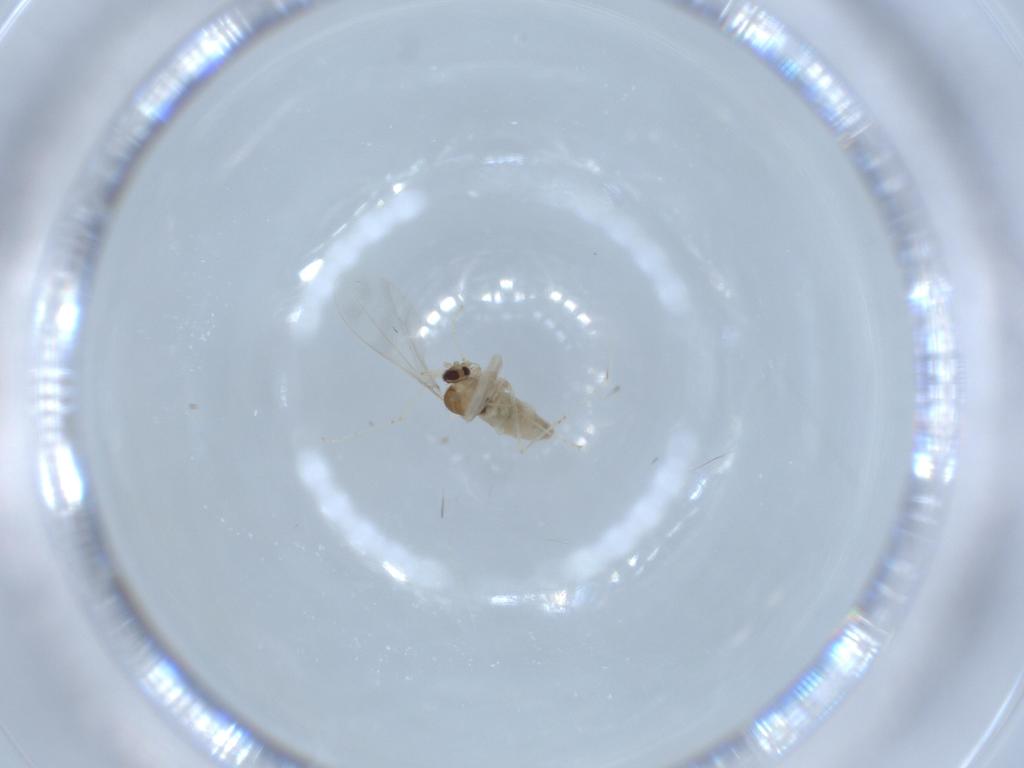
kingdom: Animalia
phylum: Arthropoda
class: Insecta
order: Diptera
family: Cecidomyiidae
